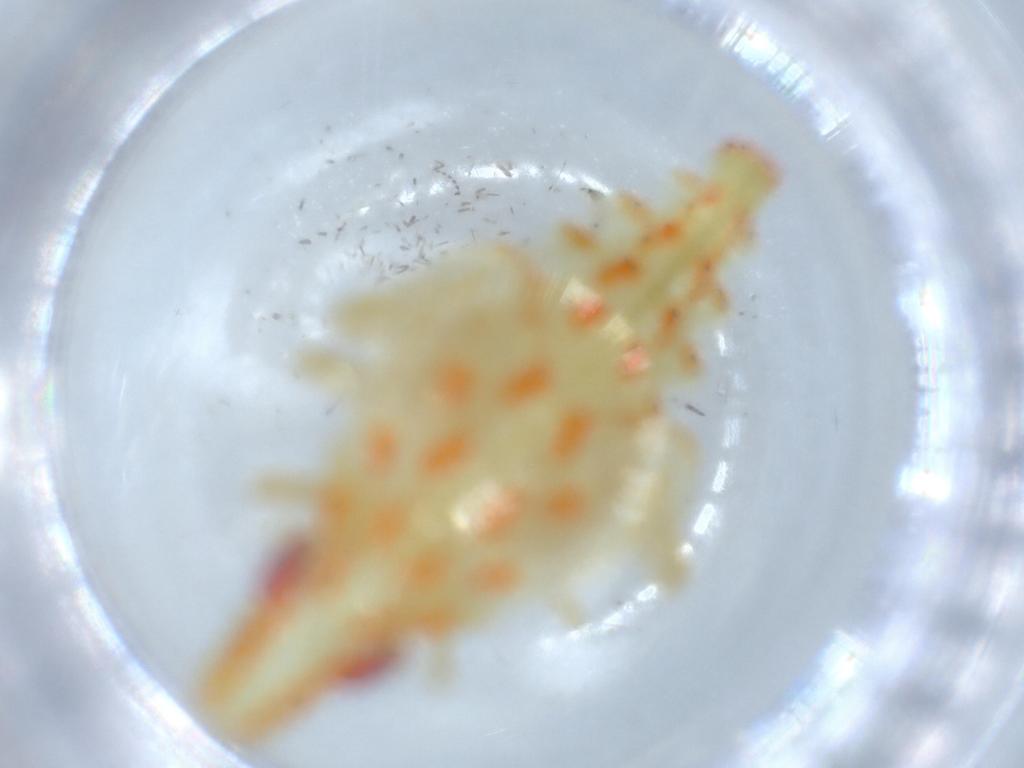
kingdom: Animalia
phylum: Arthropoda
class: Insecta
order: Hemiptera
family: Tropiduchidae
